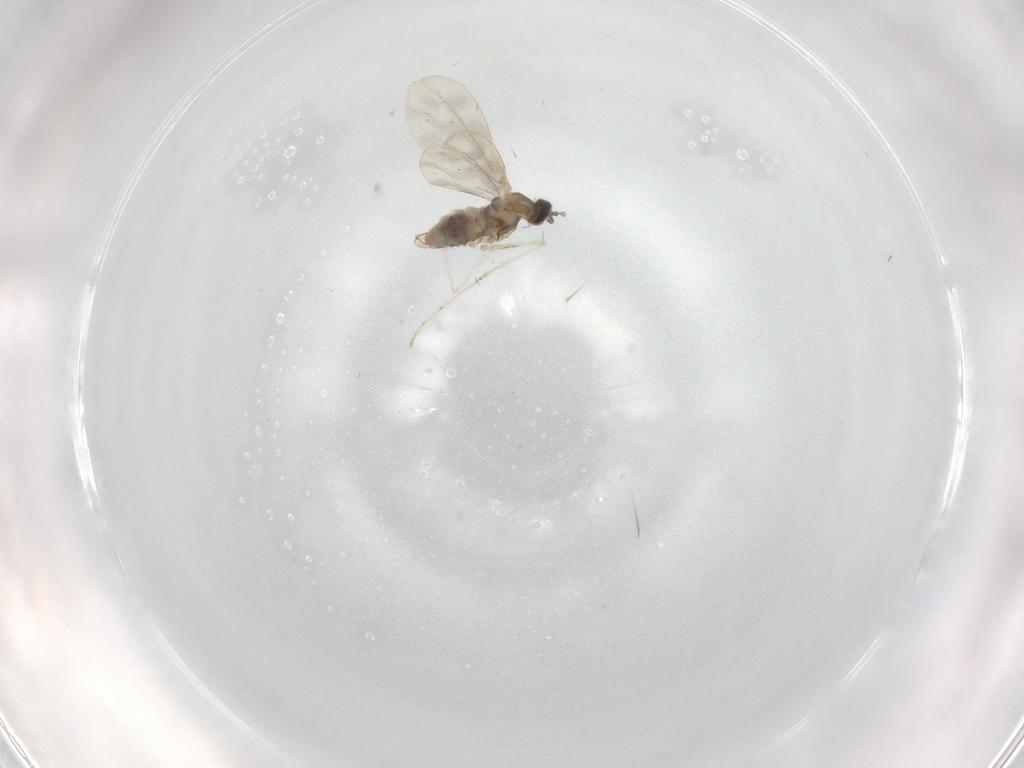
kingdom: Animalia
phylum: Arthropoda
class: Insecta
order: Diptera
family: Cecidomyiidae
